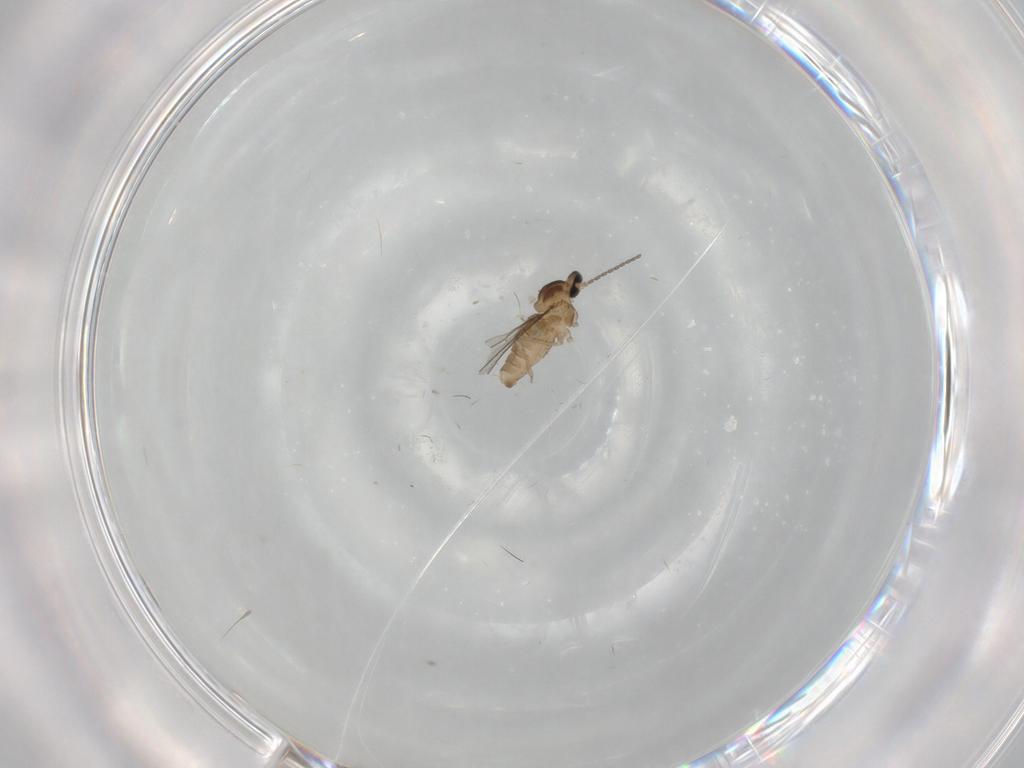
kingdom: Animalia
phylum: Arthropoda
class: Insecta
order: Diptera
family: Cecidomyiidae
